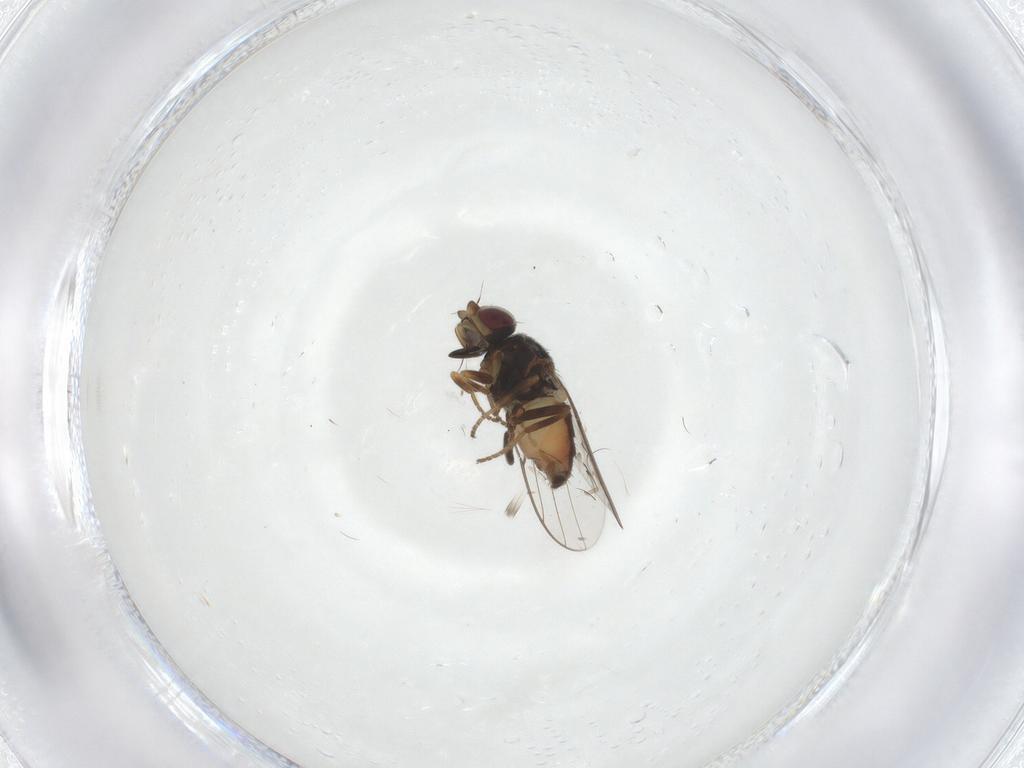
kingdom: Animalia
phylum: Arthropoda
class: Insecta
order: Diptera
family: Chloropidae
